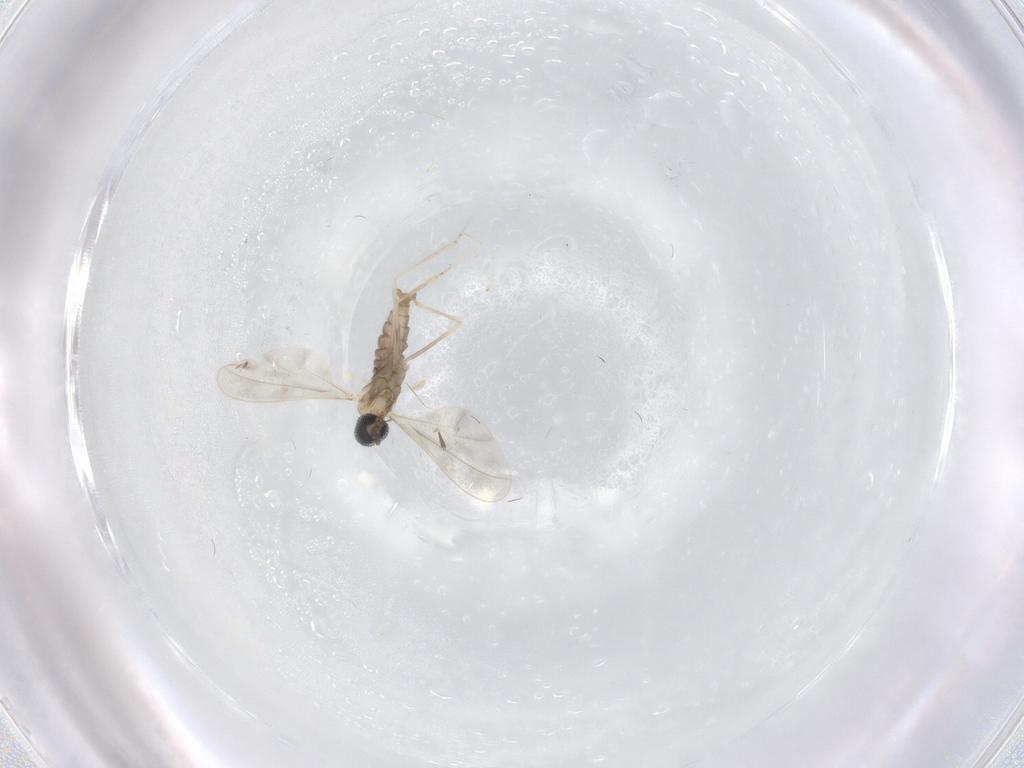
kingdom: Animalia
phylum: Arthropoda
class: Insecta
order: Diptera
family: Cecidomyiidae
